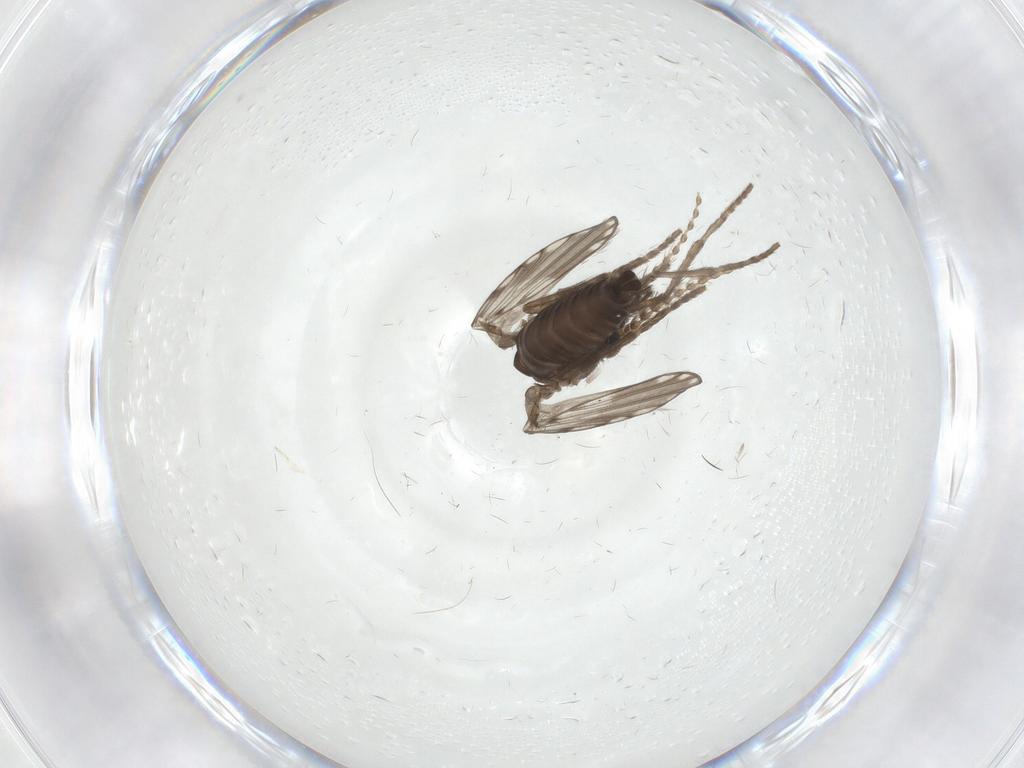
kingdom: Animalia
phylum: Arthropoda
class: Insecta
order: Diptera
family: Psychodidae
